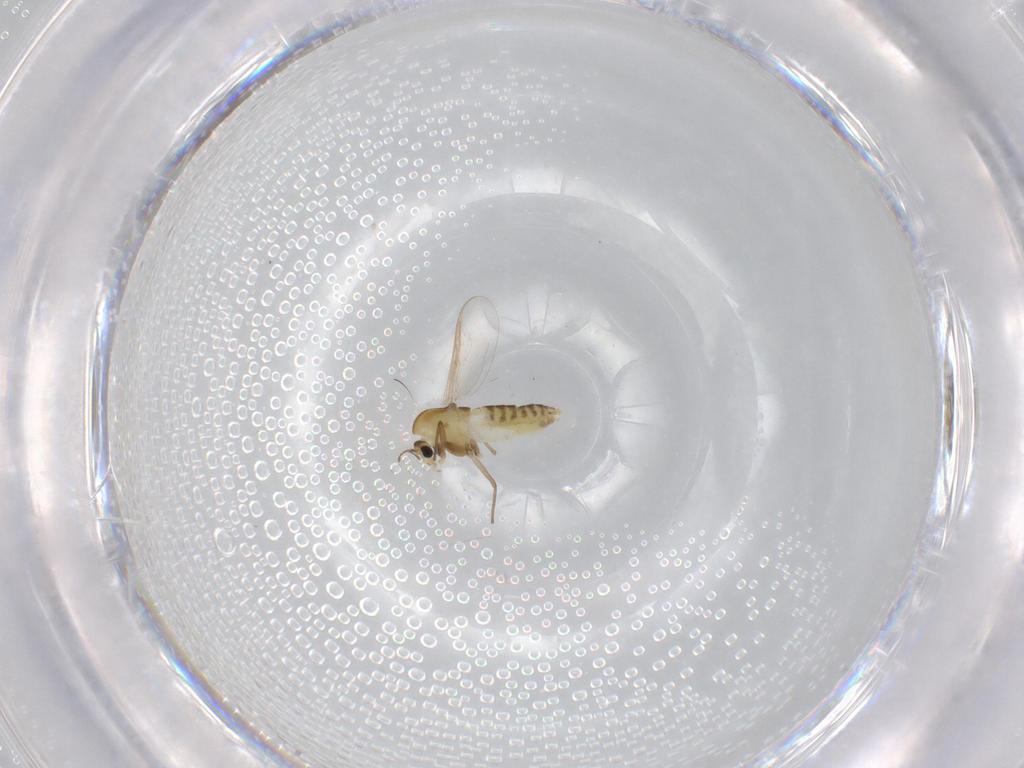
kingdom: Animalia
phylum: Arthropoda
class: Insecta
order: Diptera
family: Chironomidae
